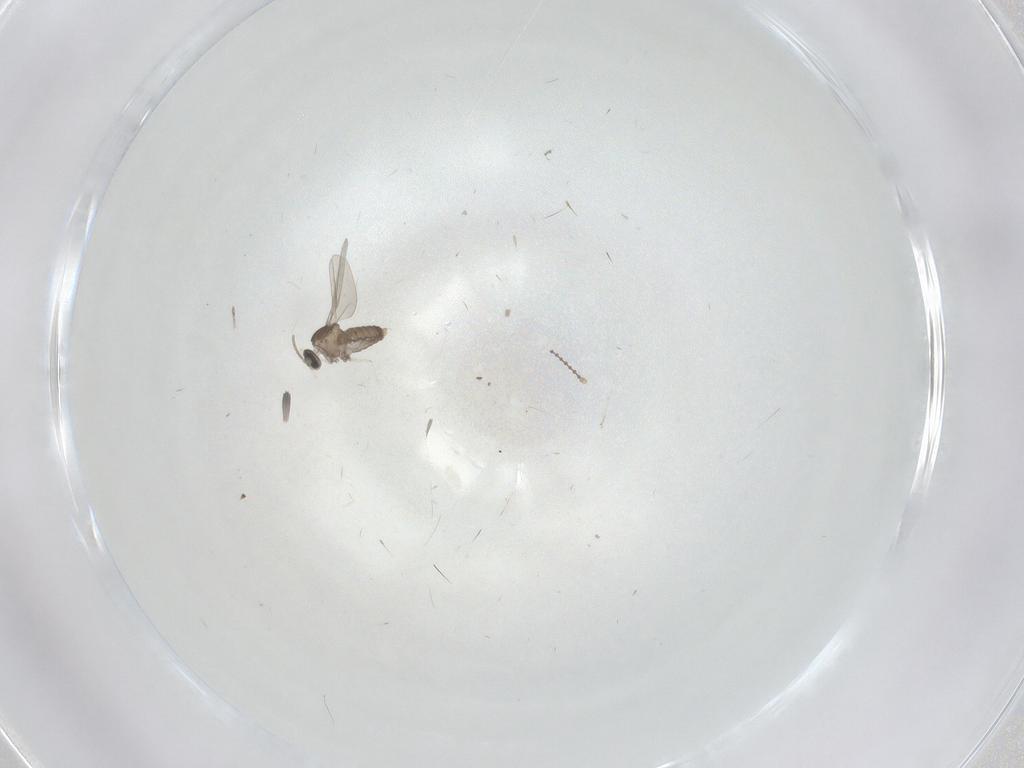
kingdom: Animalia
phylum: Arthropoda
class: Insecta
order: Diptera
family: Cecidomyiidae
